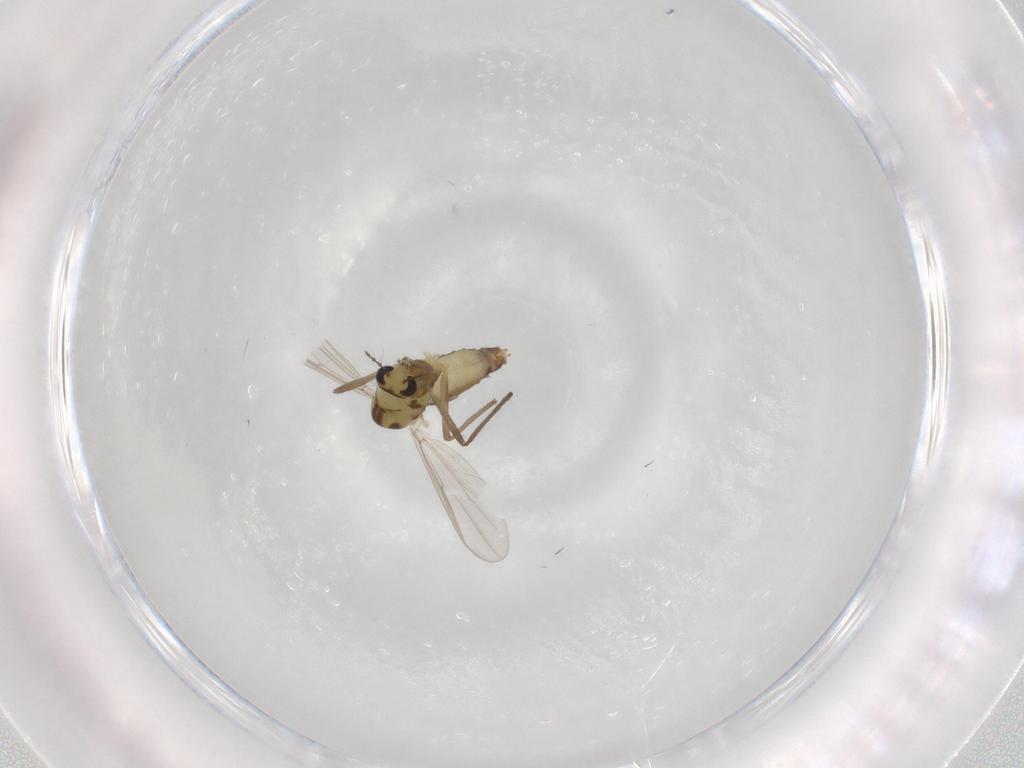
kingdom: Animalia
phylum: Arthropoda
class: Insecta
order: Diptera
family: Chironomidae
